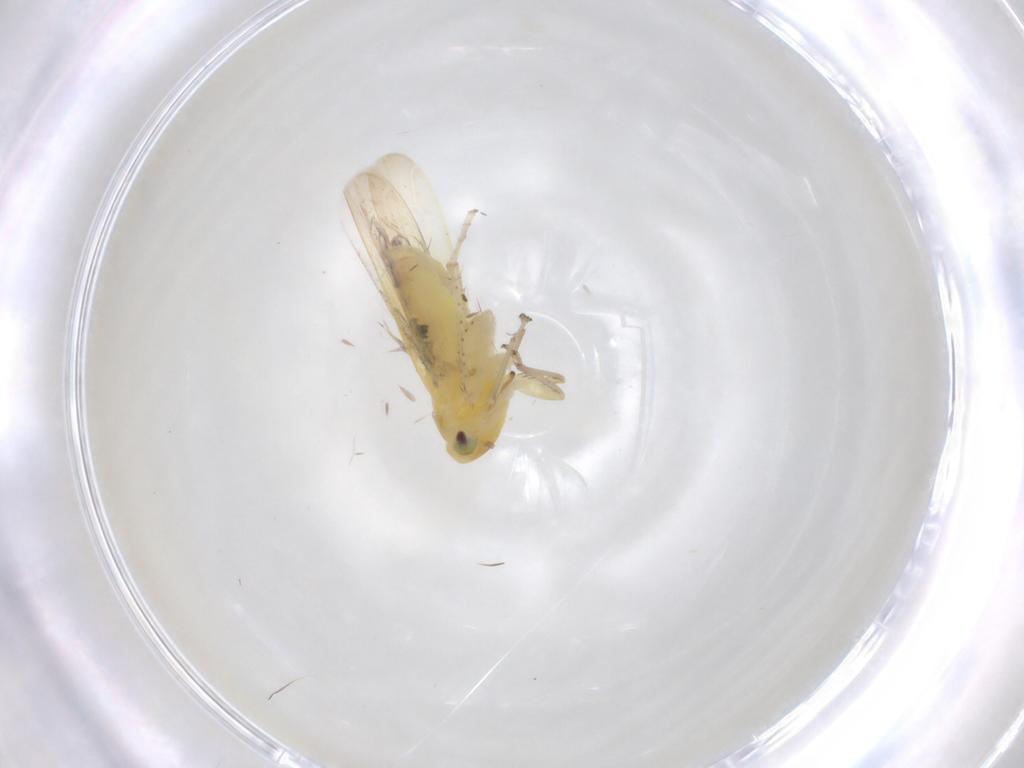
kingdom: Animalia
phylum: Arthropoda
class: Insecta
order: Hemiptera
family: Cicadellidae
